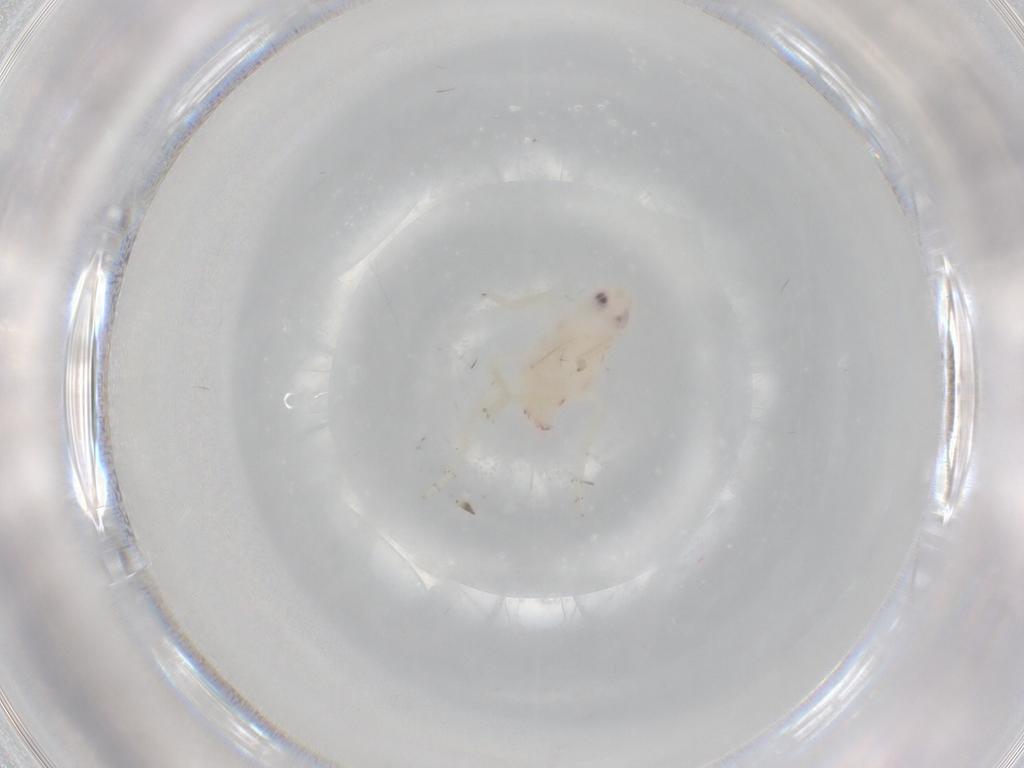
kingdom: Animalia
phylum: Arthropoda
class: Insecta
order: Hemiptera
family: Tropiduchidae
